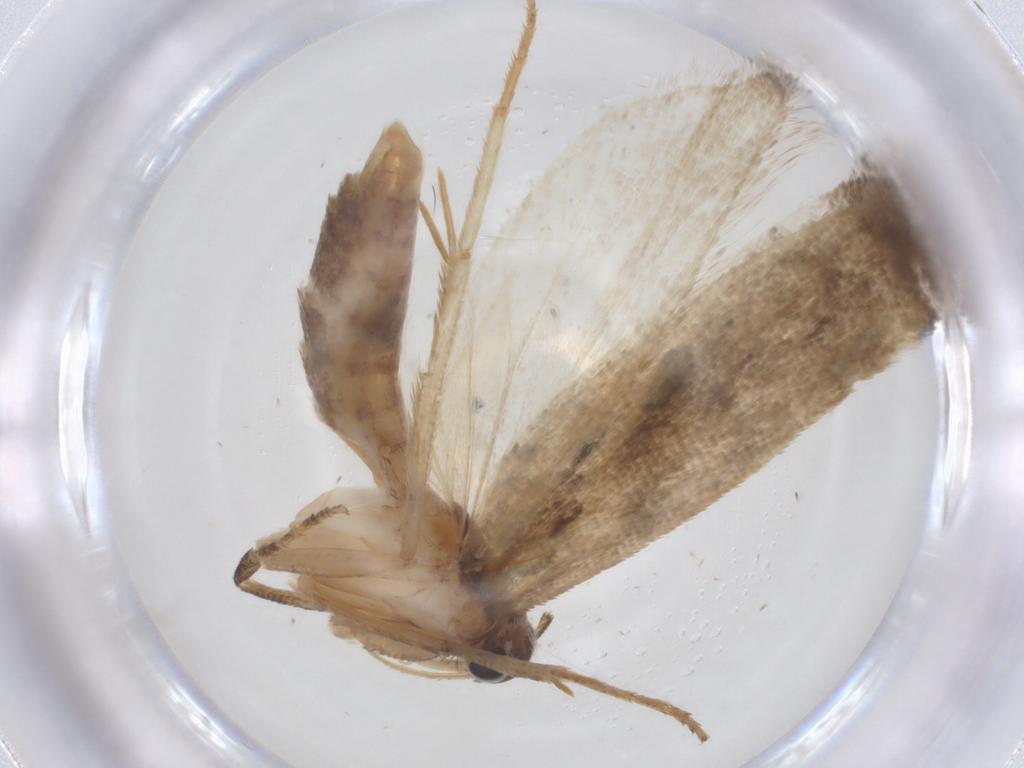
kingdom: Animalia
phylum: Arthropoda
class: Insecta
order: Lepidoptera
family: Gelechiidae
